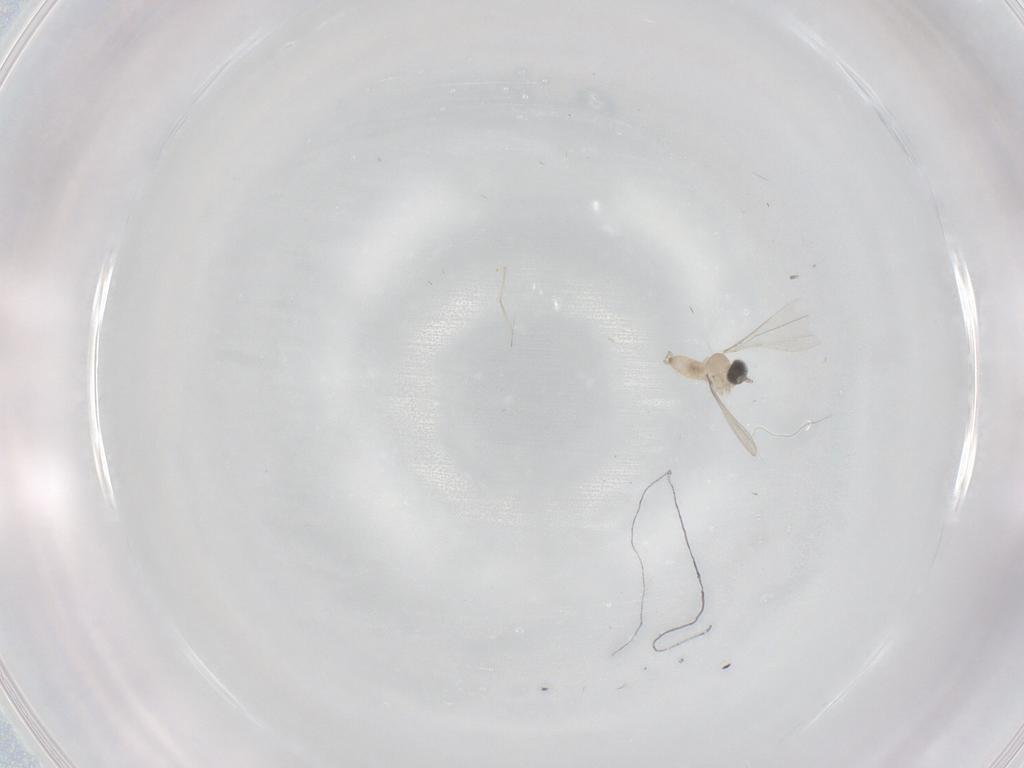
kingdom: Animalia
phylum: Arthropoda
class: Insecta
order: Diptera
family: Cecidomyiidae
